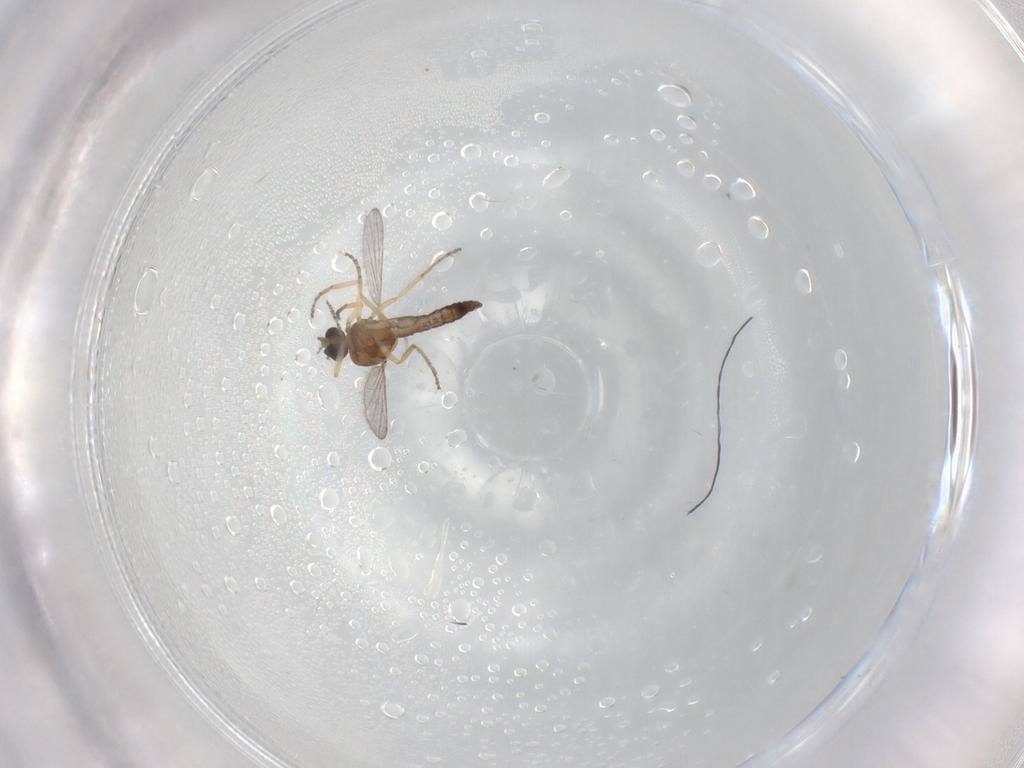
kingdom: Animalia
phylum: Arthropoda
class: Insecta
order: Diptera
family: Ceratopogonidae
